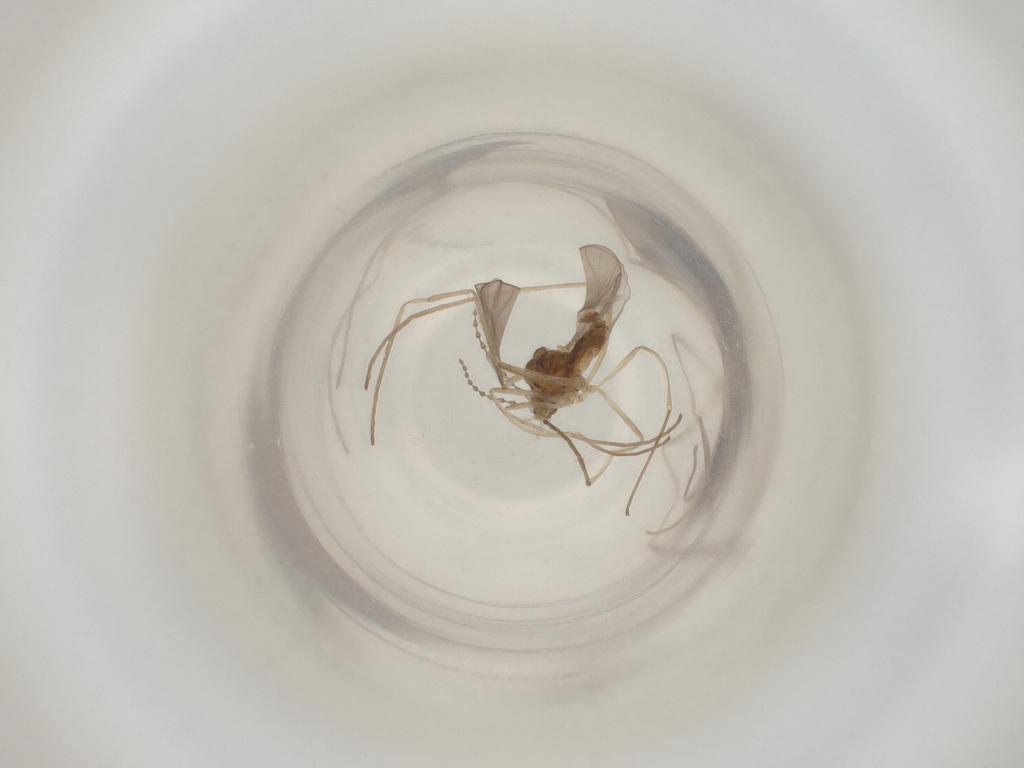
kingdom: Animalia
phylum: Arthropoda
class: Insecta
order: Diptera
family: Cecidomyiidae
